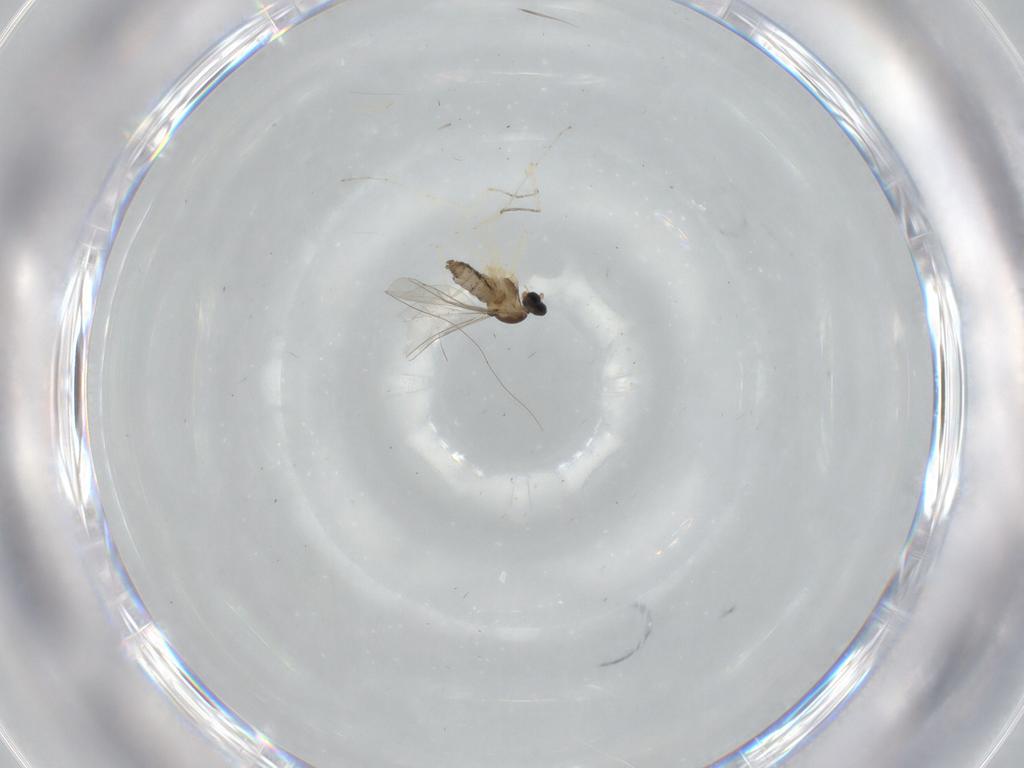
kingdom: Animalia
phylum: Arthropoda
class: Insecta
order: Diptera
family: Cecidomyiidae
